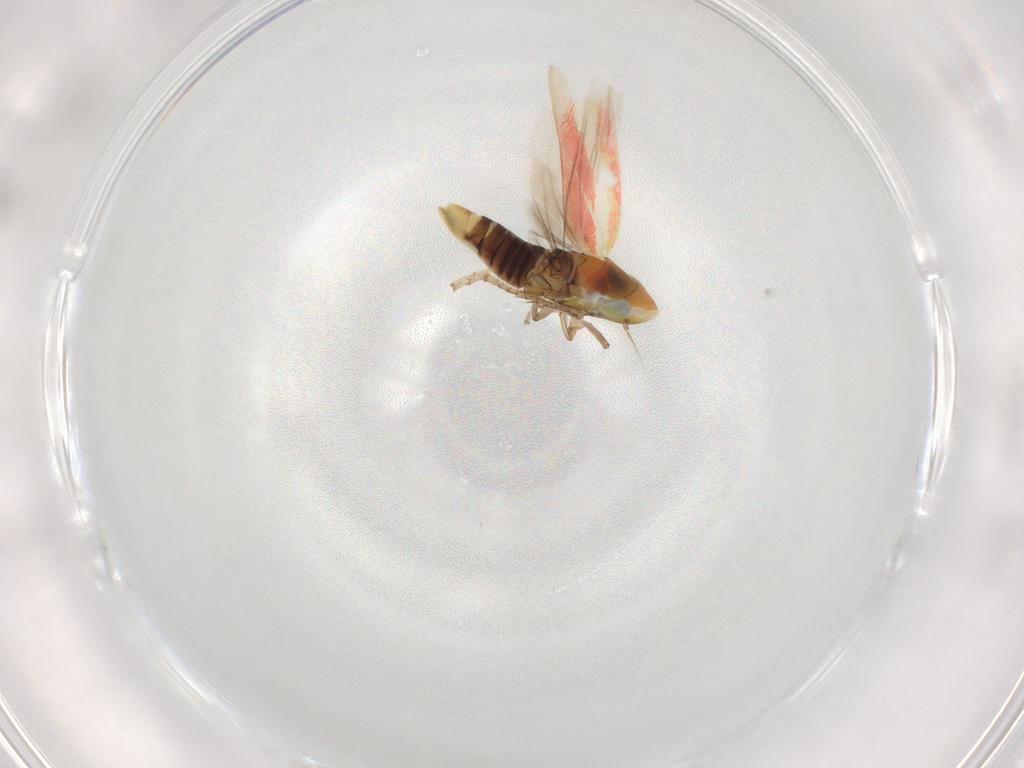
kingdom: Animalia
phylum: Arthropoda
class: Insecta
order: Hemiptera
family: Cicadellidae
